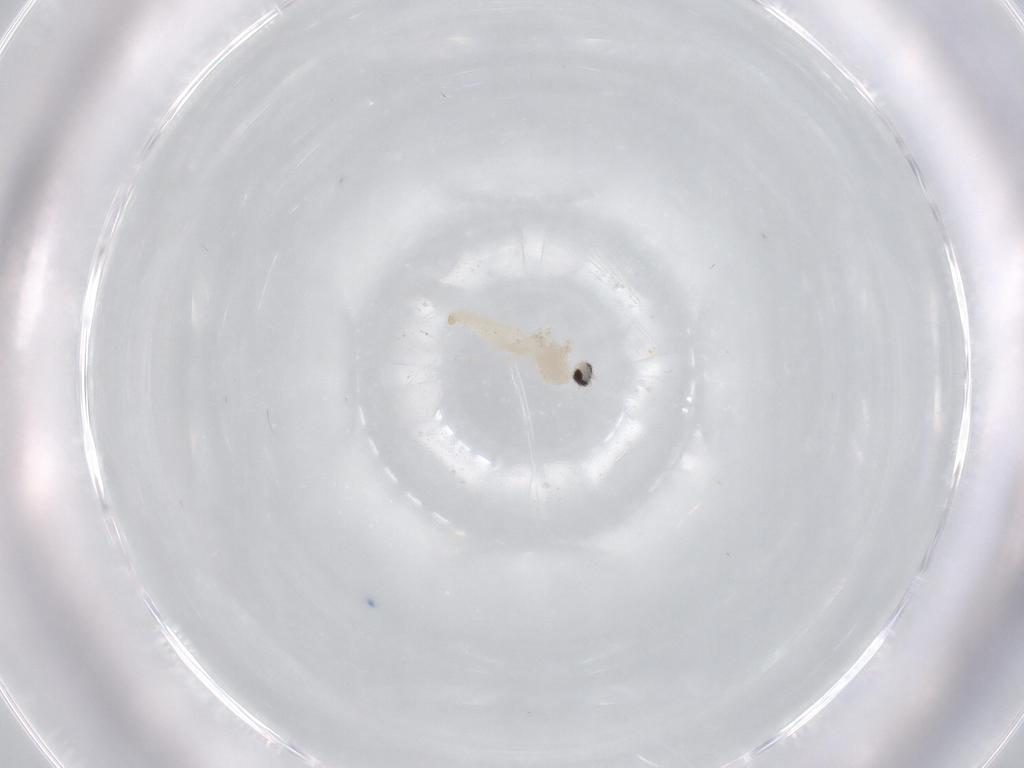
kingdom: Animalia
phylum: Arthropoda
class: Insecta
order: Diptera
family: Cecidomyiidae
